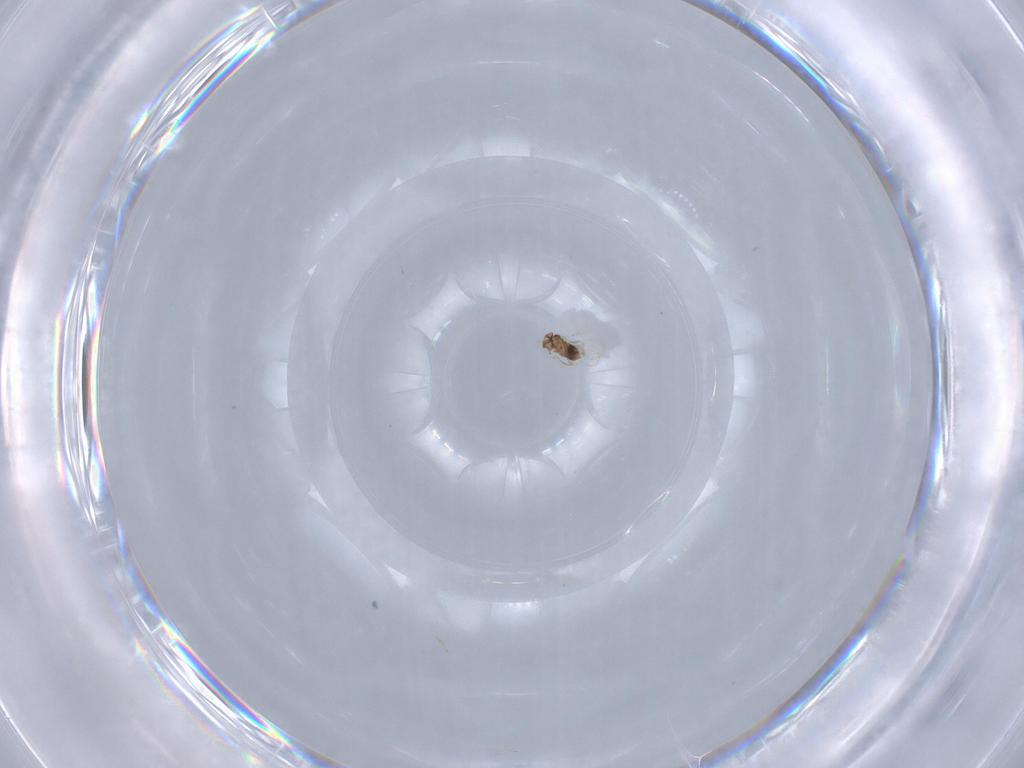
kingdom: Animalia
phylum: Arthropoda
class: Insecta
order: Hymenoptera
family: Trichogrammatidae
